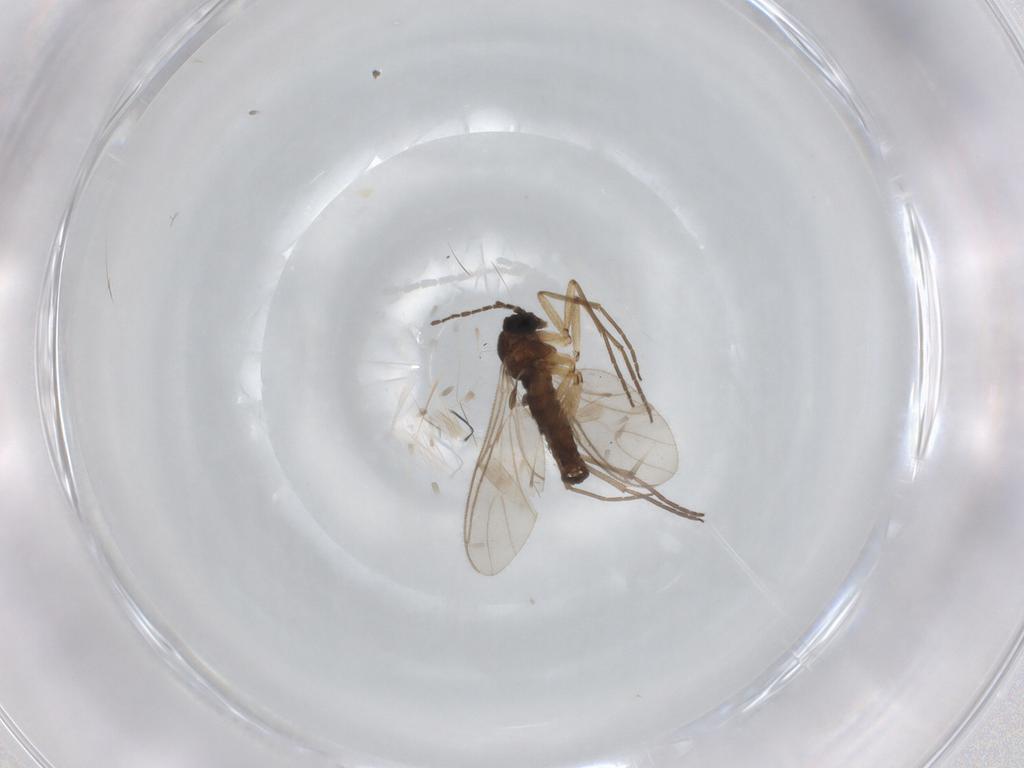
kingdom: Animalia
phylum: Arthropoda
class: Insecta
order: Diptera
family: Sciaridae
